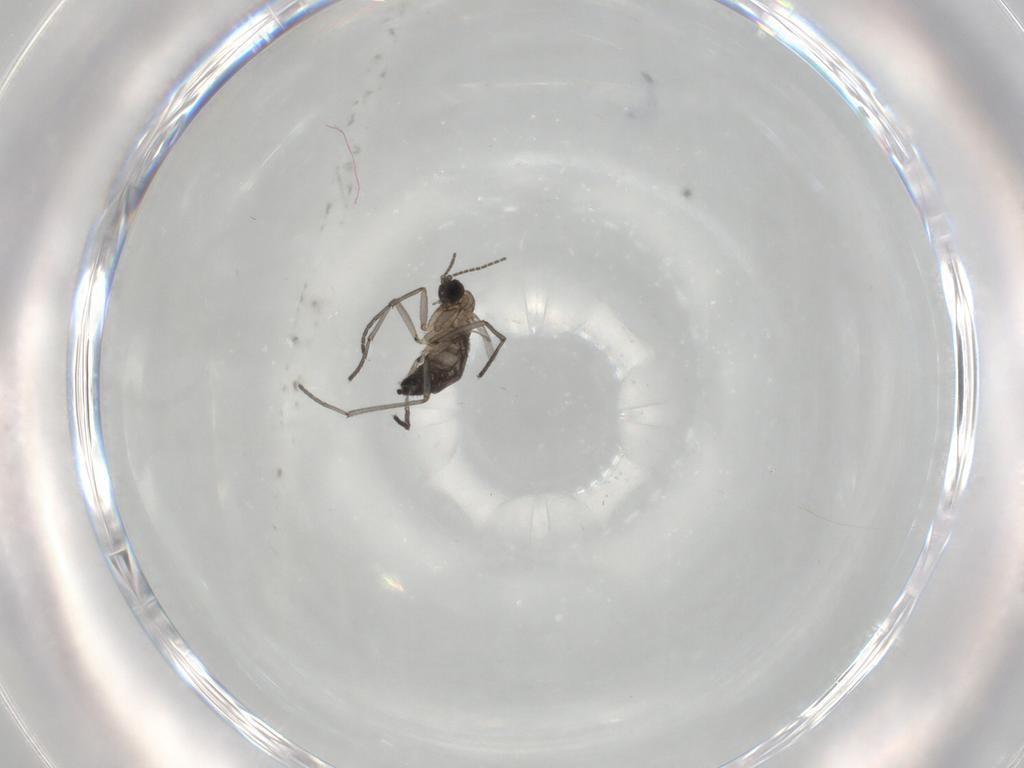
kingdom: Animalia
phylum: Arthropoda
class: Insecta
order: Diptera
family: Sciaridae
